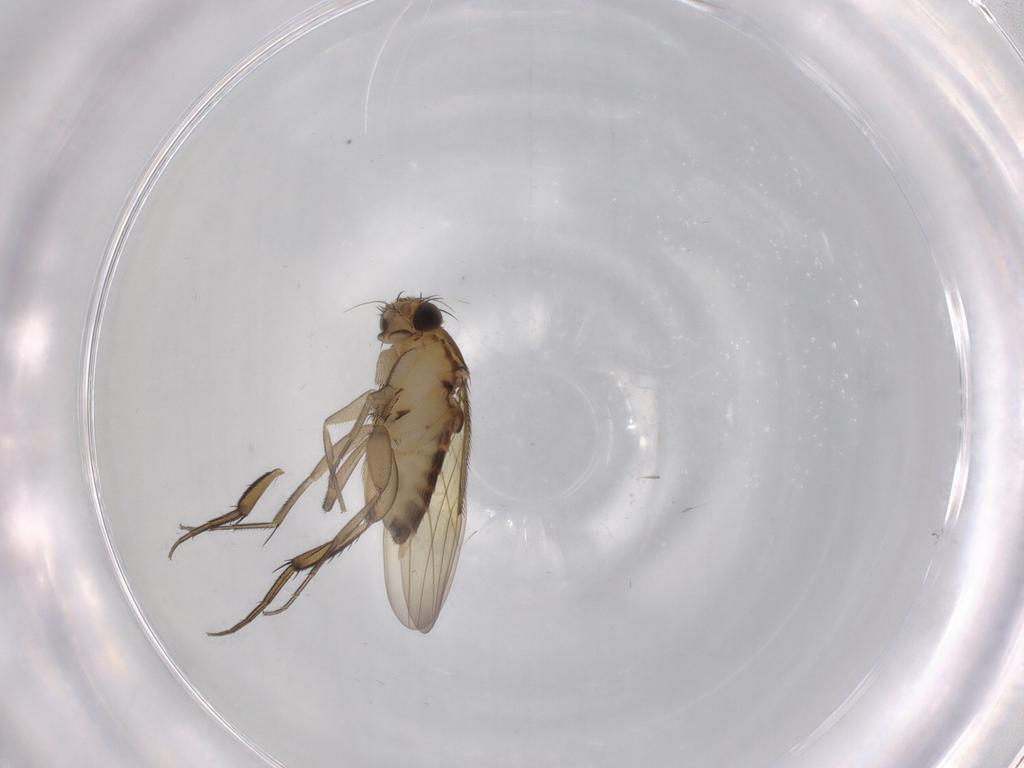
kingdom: Animalia
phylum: Arthropoda
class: Insecta
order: Diptera
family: Phoridae
